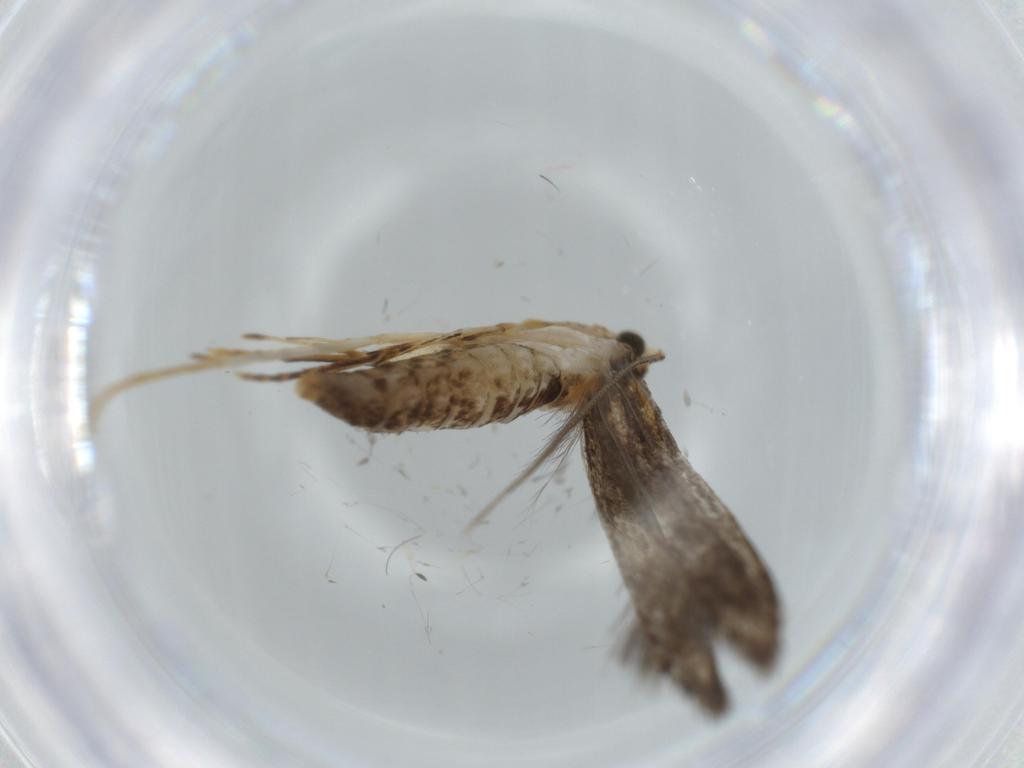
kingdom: Animalia
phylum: Arthropoda
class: Insecta
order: Lepidoptera
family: Tineidae
